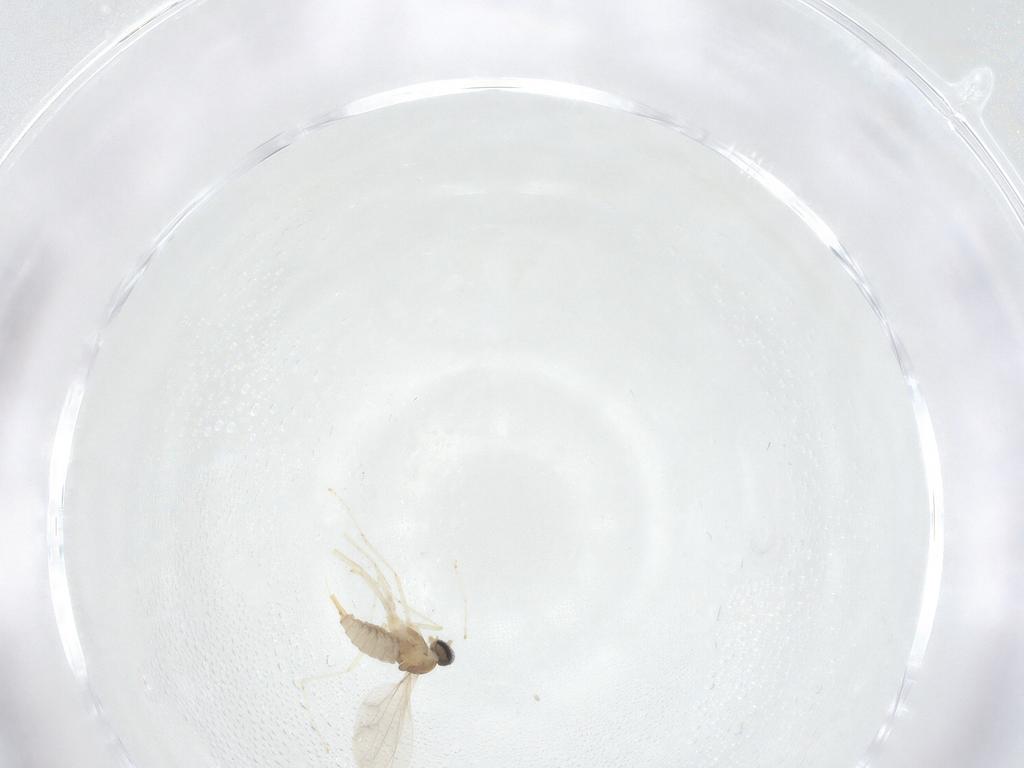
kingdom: Animalia
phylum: Arthropoda
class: Insecta
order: Diptera
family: Cecidomyiidae
